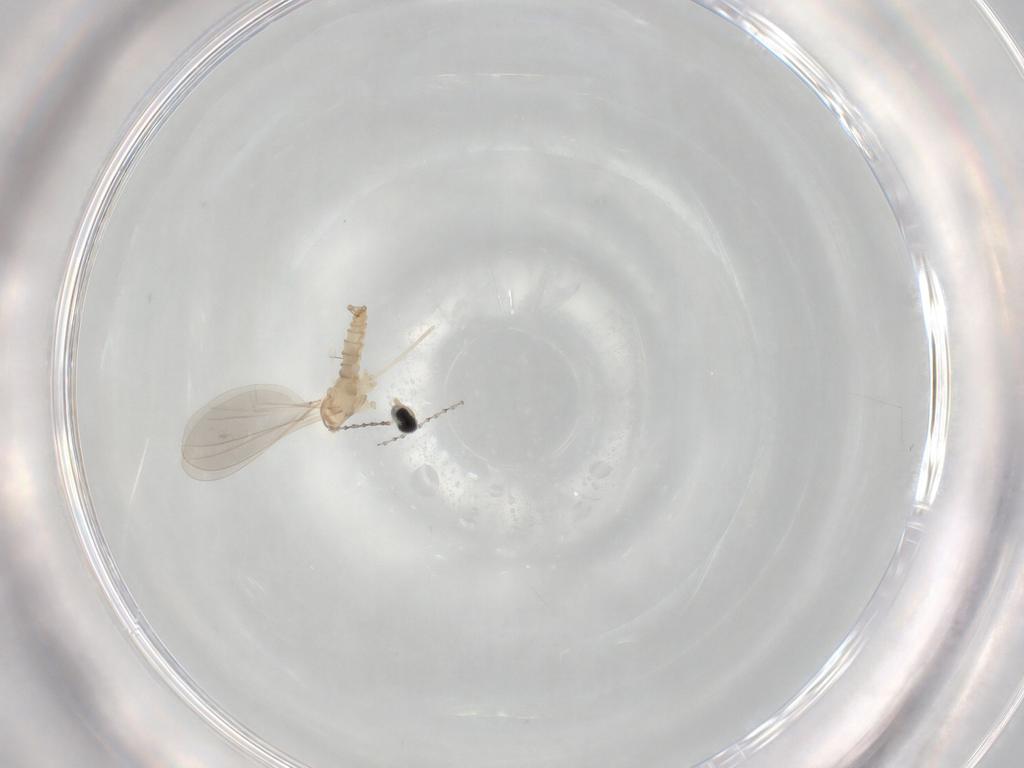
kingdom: Animalia
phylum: Arthropoda
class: Insecta
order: Diptera
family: Cecidomyiidae
